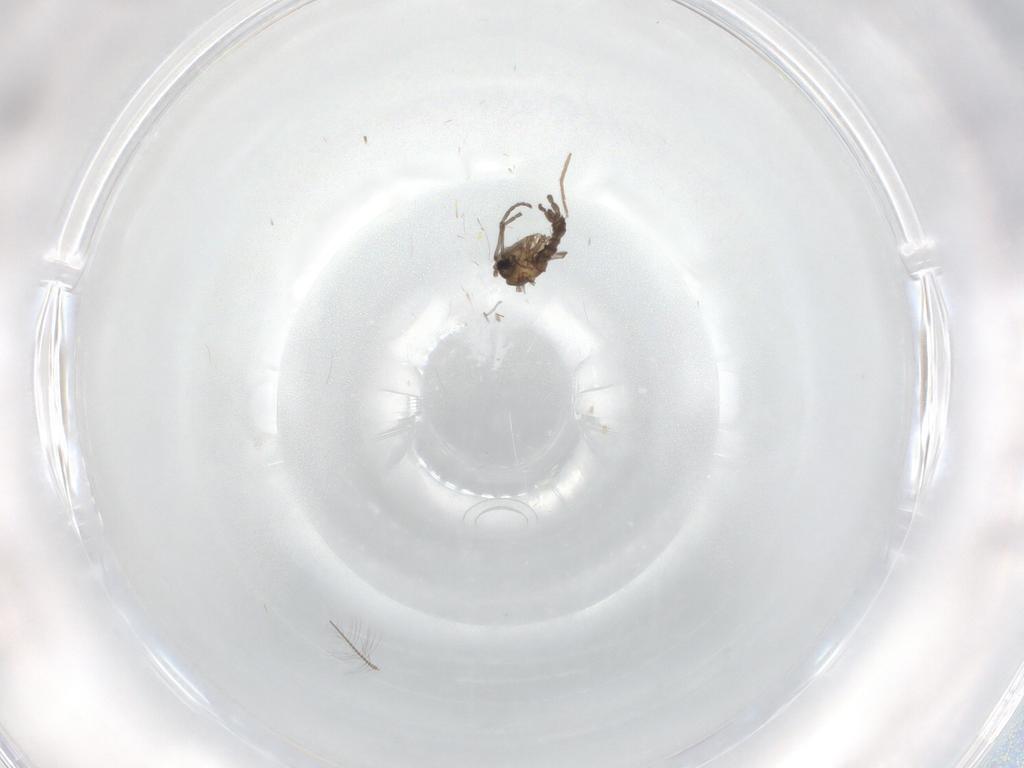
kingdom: Animalia
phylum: Arthropoda
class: Insecta
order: Diptera
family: Sciaridae
